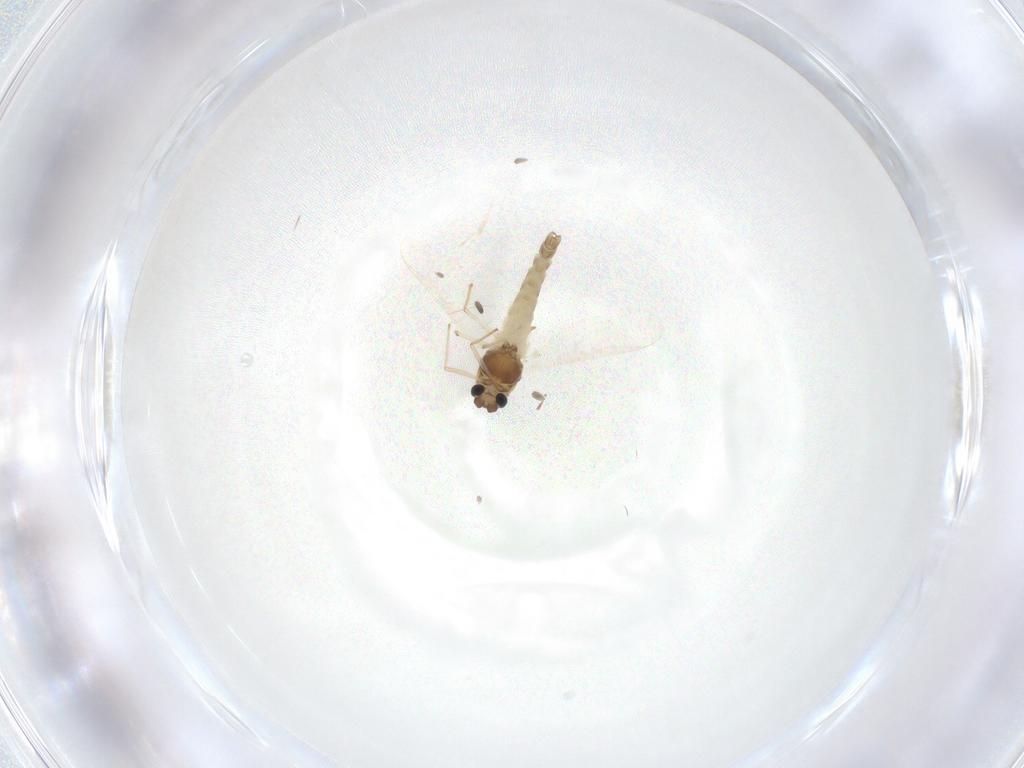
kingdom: Animalia
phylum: Arthropoda
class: Insecta
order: Diptera
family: Chironomidae
